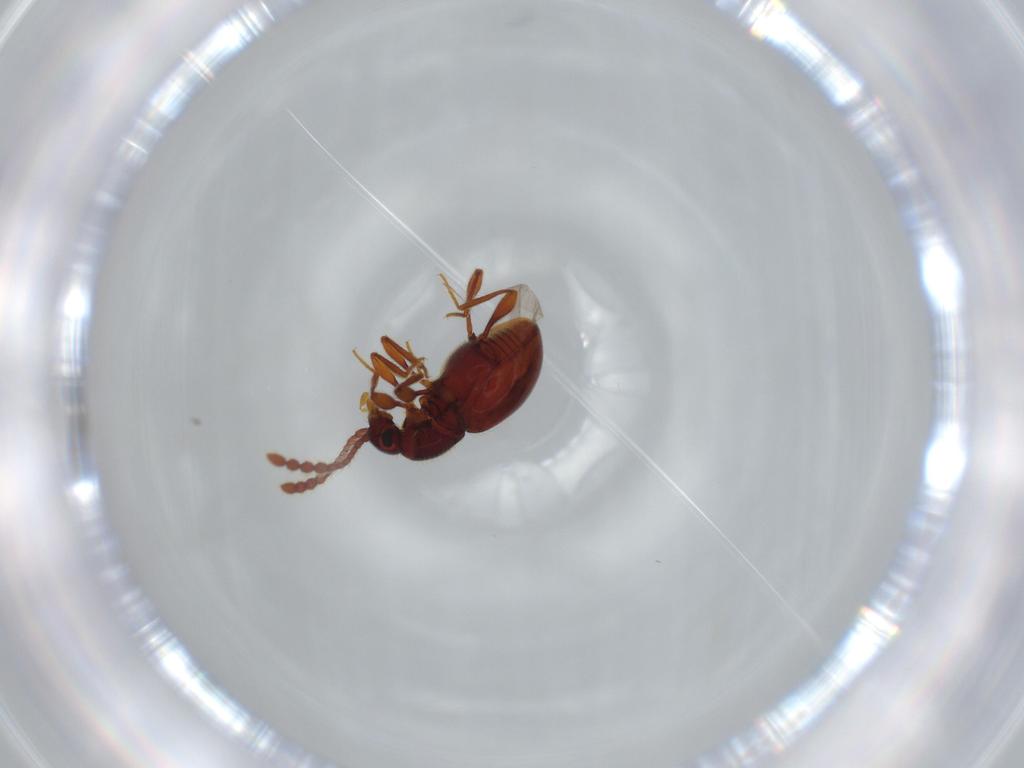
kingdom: Animalia
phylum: Arthropoda
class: Insecta
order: Coleoptera
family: Staphylinidae
